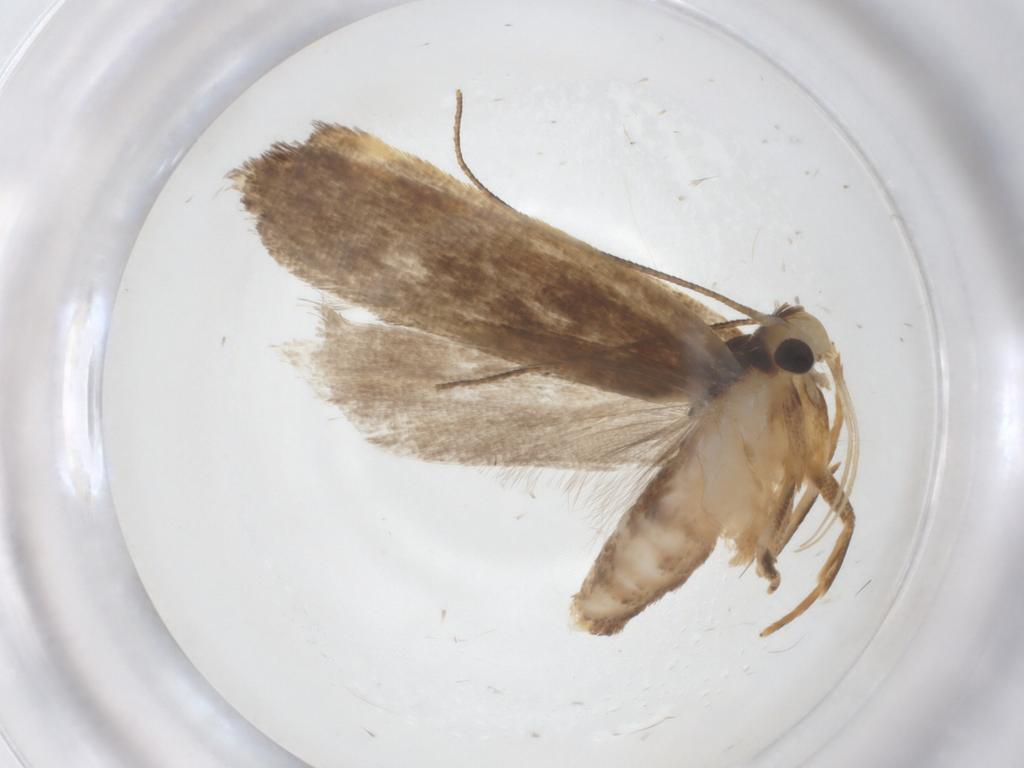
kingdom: Animalia
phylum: Arthropoda
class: Insecta
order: Lepidoptera
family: Gelechiidae
